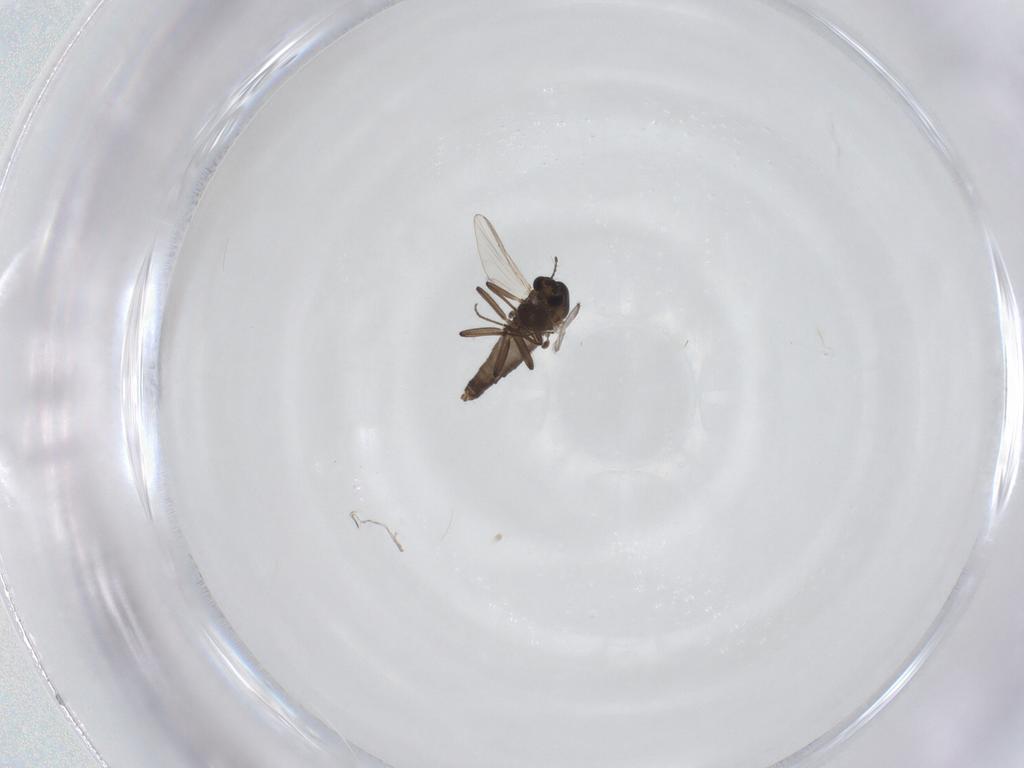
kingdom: Animalia
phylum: Arthropoda
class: Insecta
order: Diptera
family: Chironomidae
